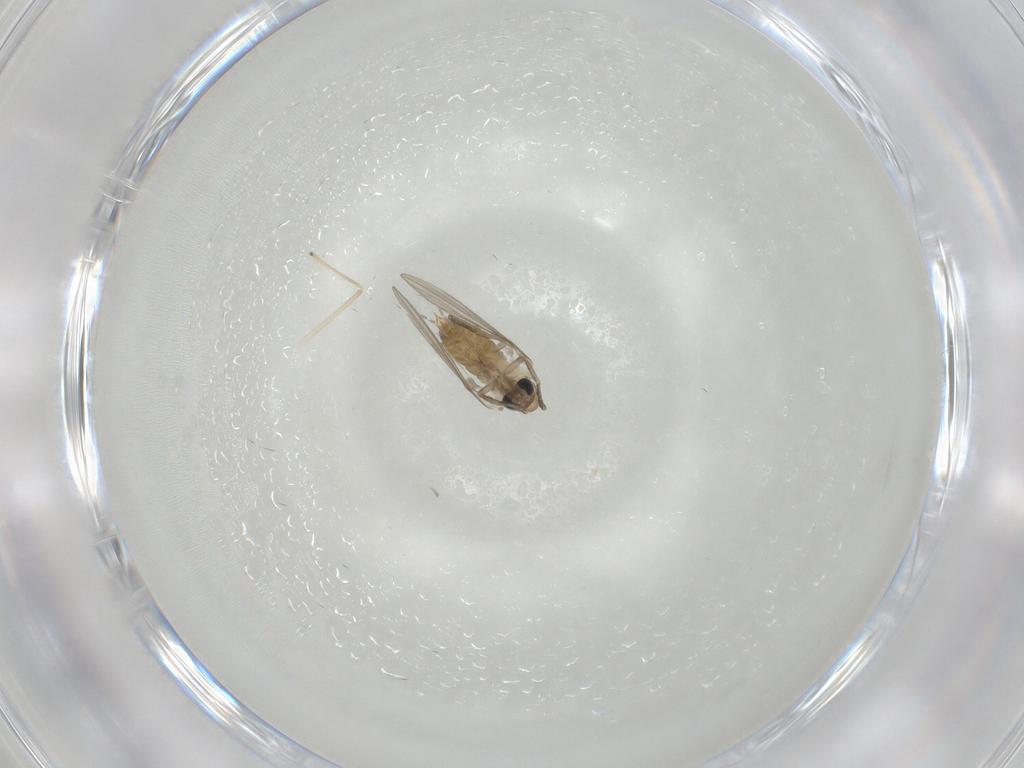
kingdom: Animalia
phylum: Arthropoda
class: Insecta
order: Diptera
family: Psychodidae
